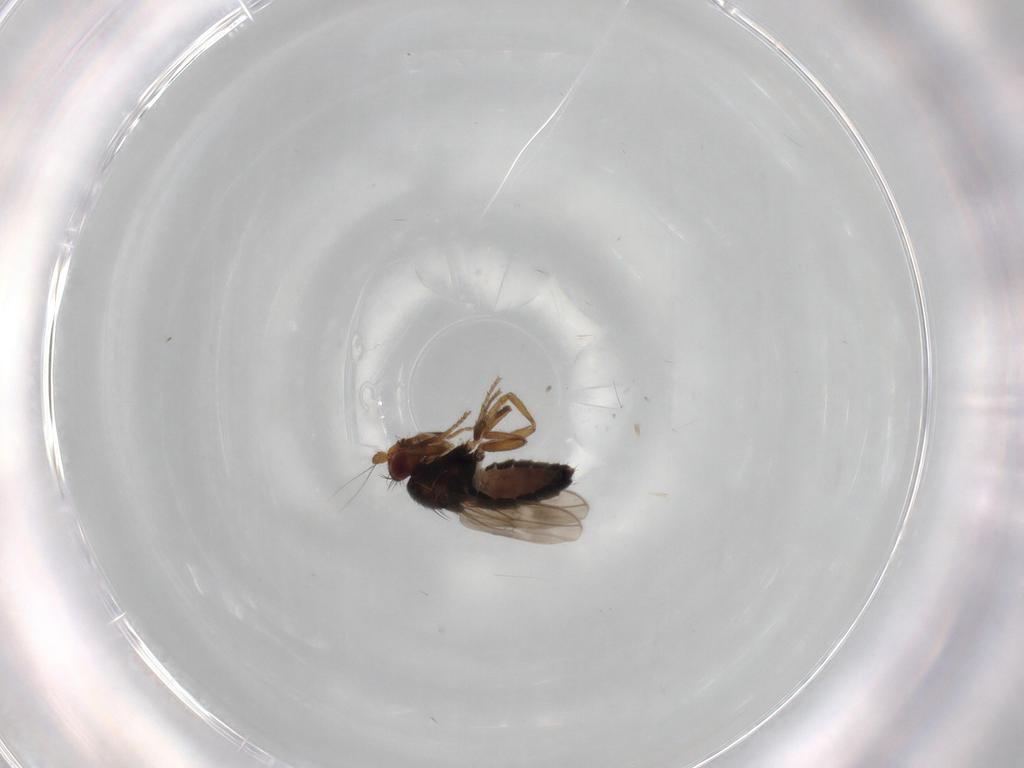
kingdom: Animalia
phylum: Arthropoda
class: Insecta
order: Diptera
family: Sphaeroceridae
